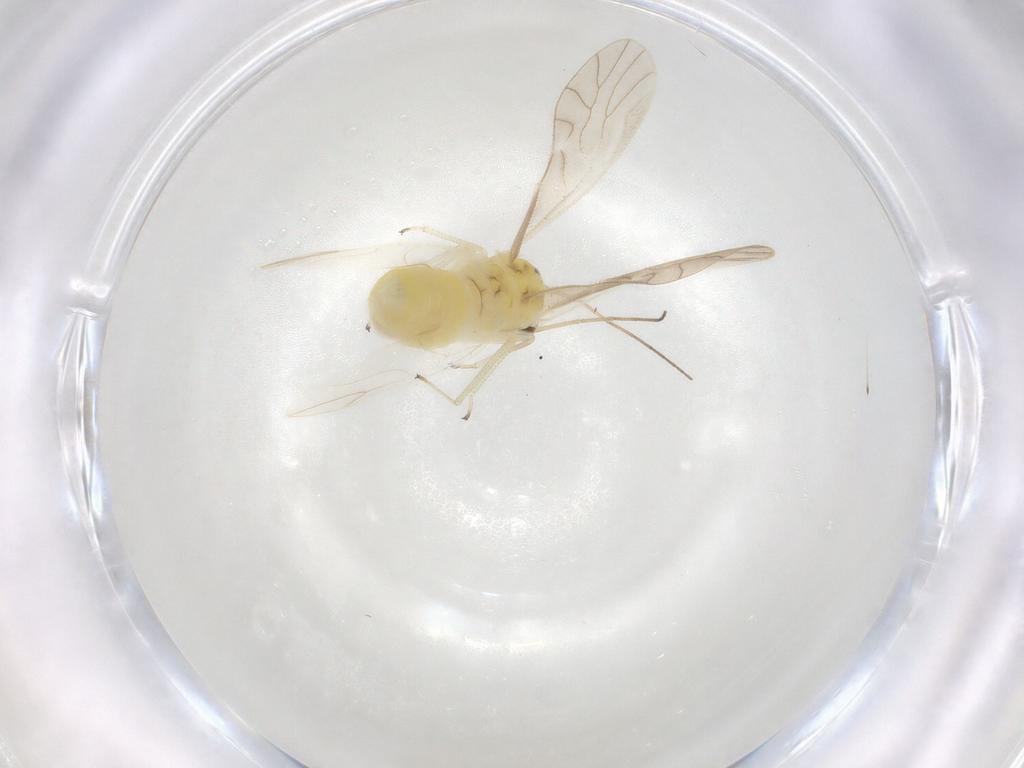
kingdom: Animalia
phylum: Arthropoda
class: Insecta
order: Psocodea
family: Caeciliusidae
